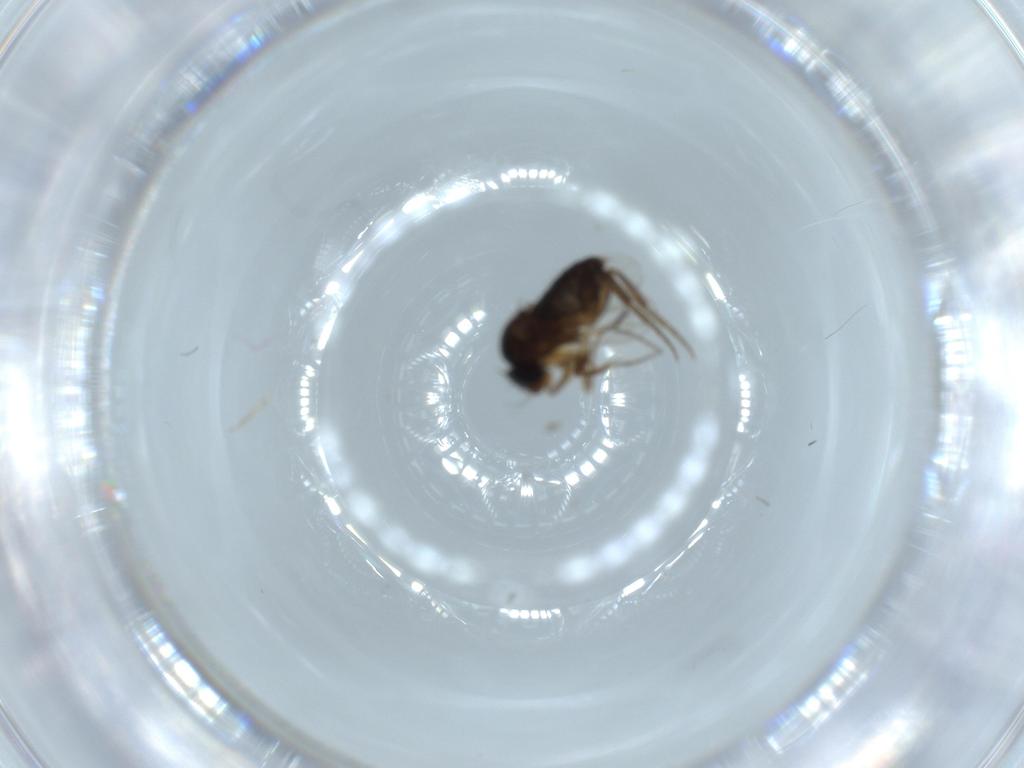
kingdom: Animalia
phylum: Arthropoda
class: Insecta
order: Diptera
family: Phoridae
